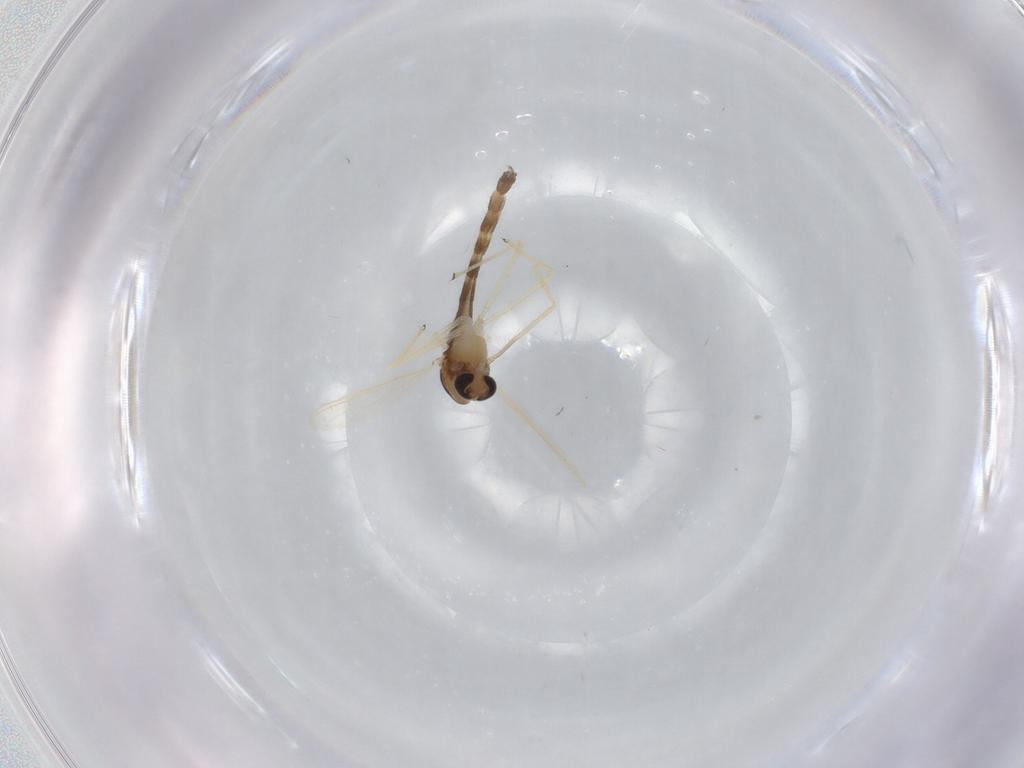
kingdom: Animalia
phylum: Arthropoda
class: Insecta
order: Diptera
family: Chironomidae
